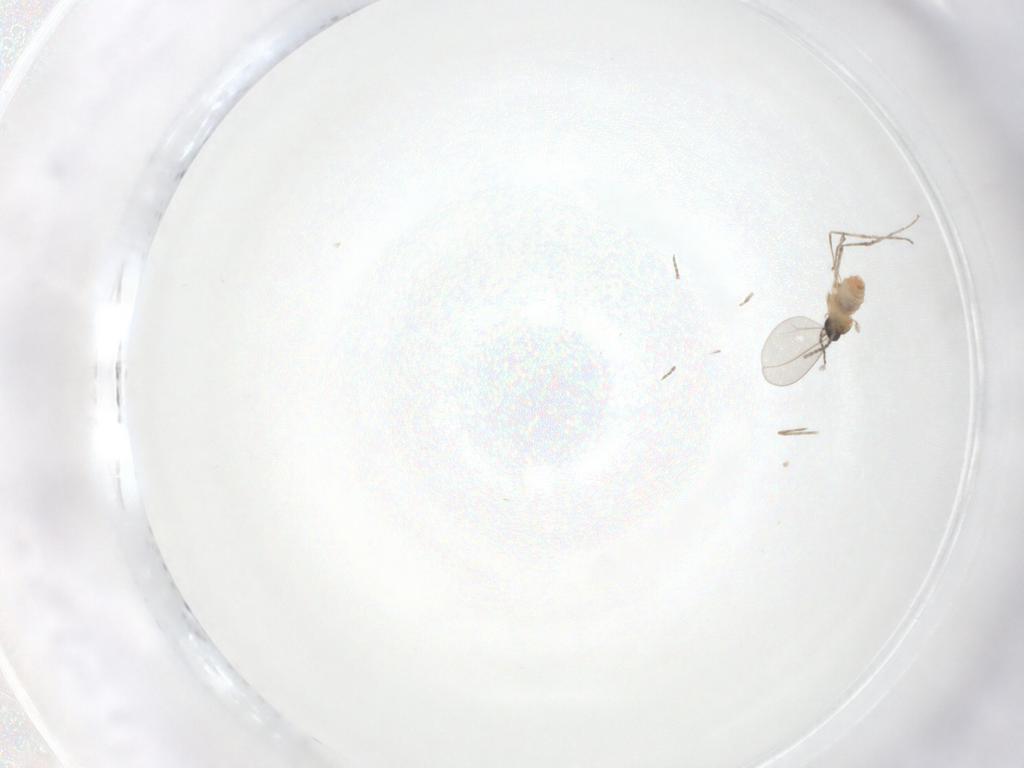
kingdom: Animalia
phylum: Arthropoda
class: Insecta
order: Diptera
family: Cecidomyiidae
